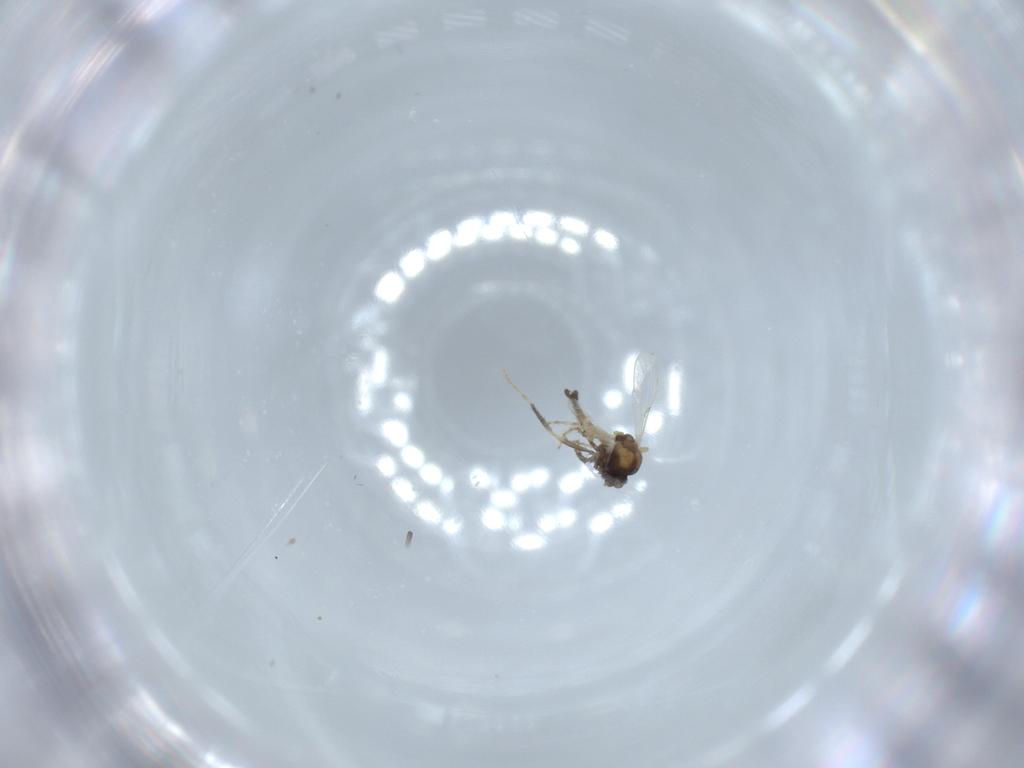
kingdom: Animalia
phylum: Arthropoda
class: Insecta
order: Diptera
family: Ceratopogonidae
